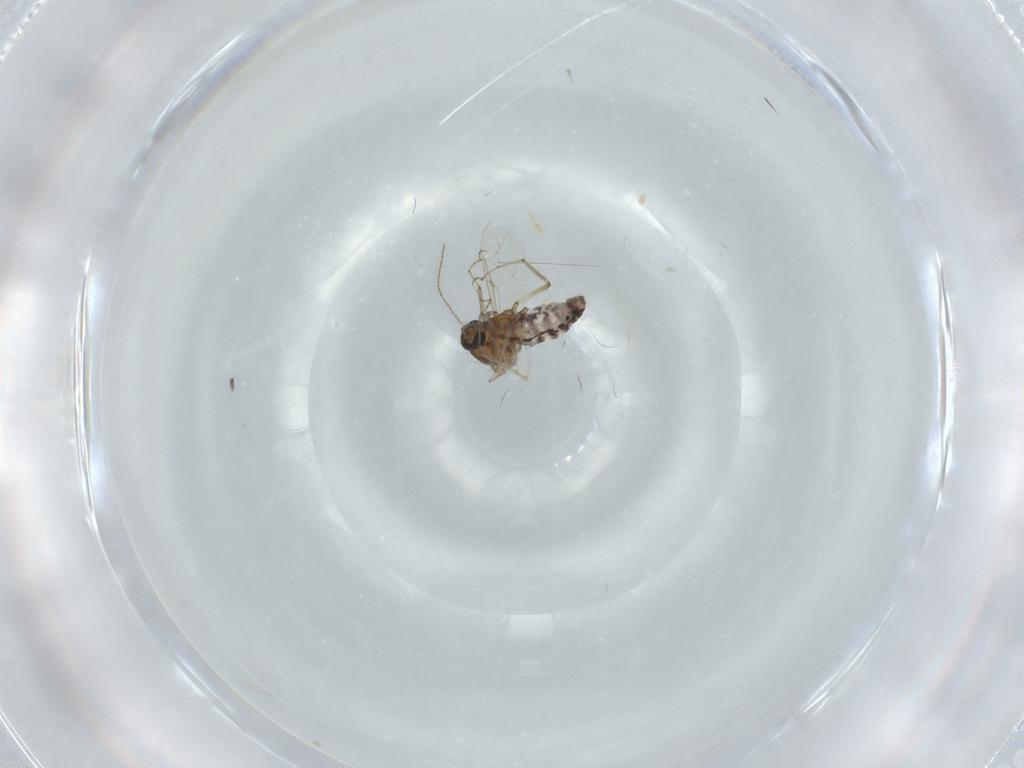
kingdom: Animalia
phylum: Arthropoda
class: Insecta
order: Diptera
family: Ceratopogonidae
